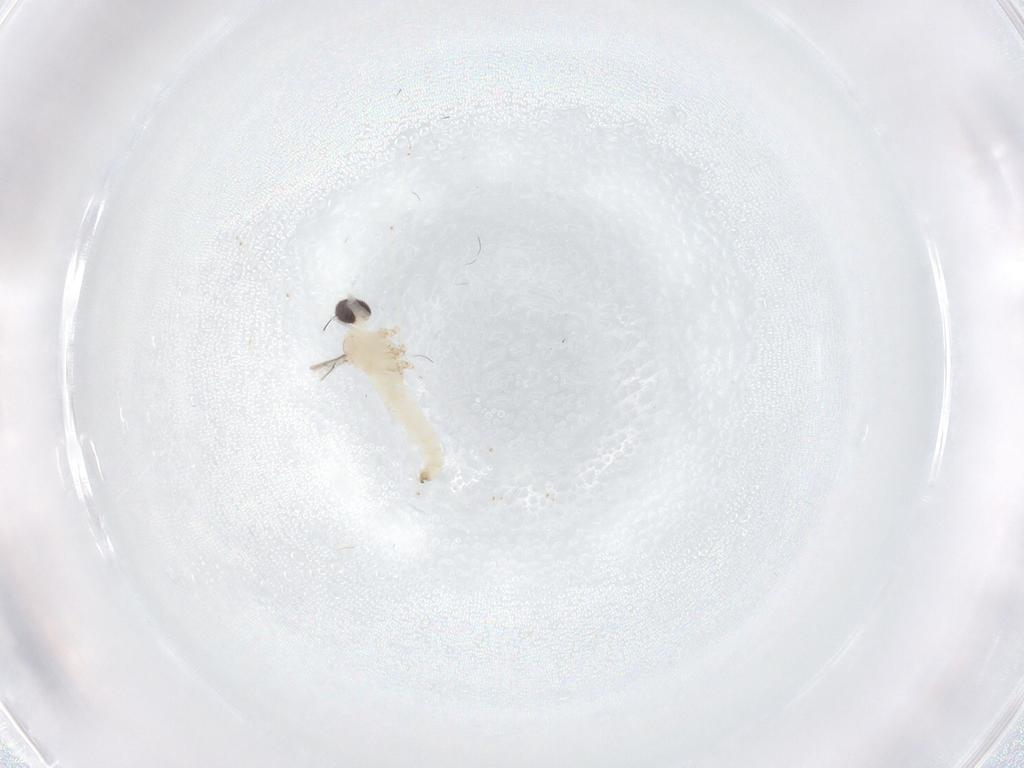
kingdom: Animalia
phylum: Arthropoda
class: Insecta
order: Diptera
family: Cecidomyiidae
